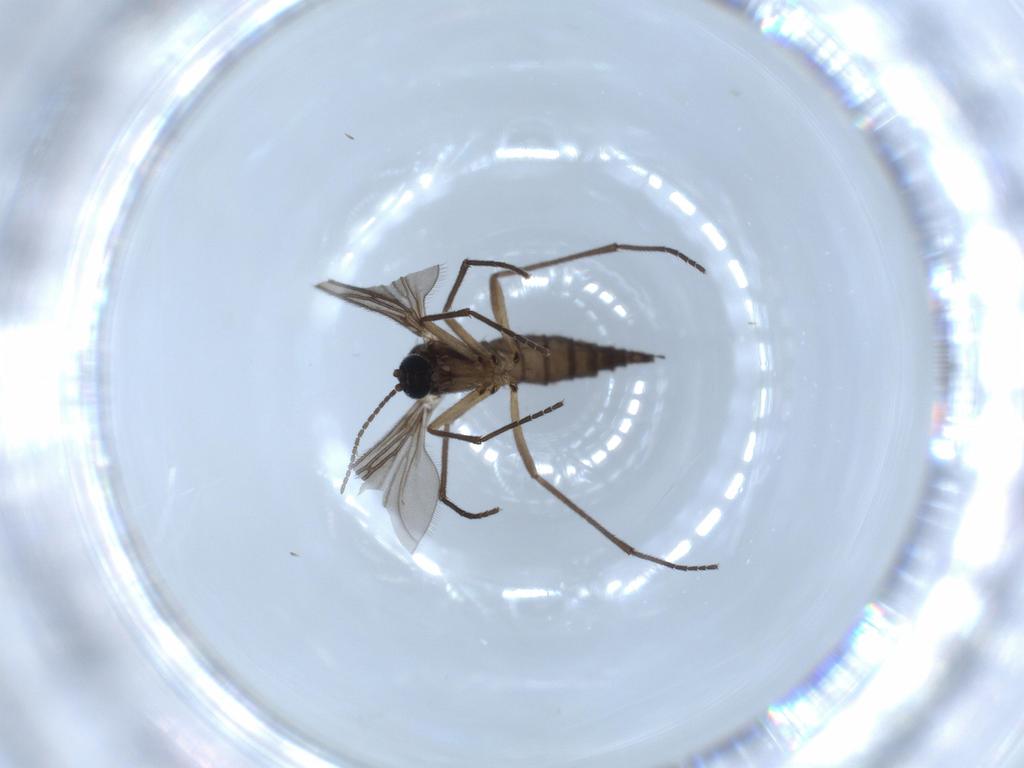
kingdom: Animalia
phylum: Arthropoda
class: Insecta
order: Diptera
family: Sciaridae
